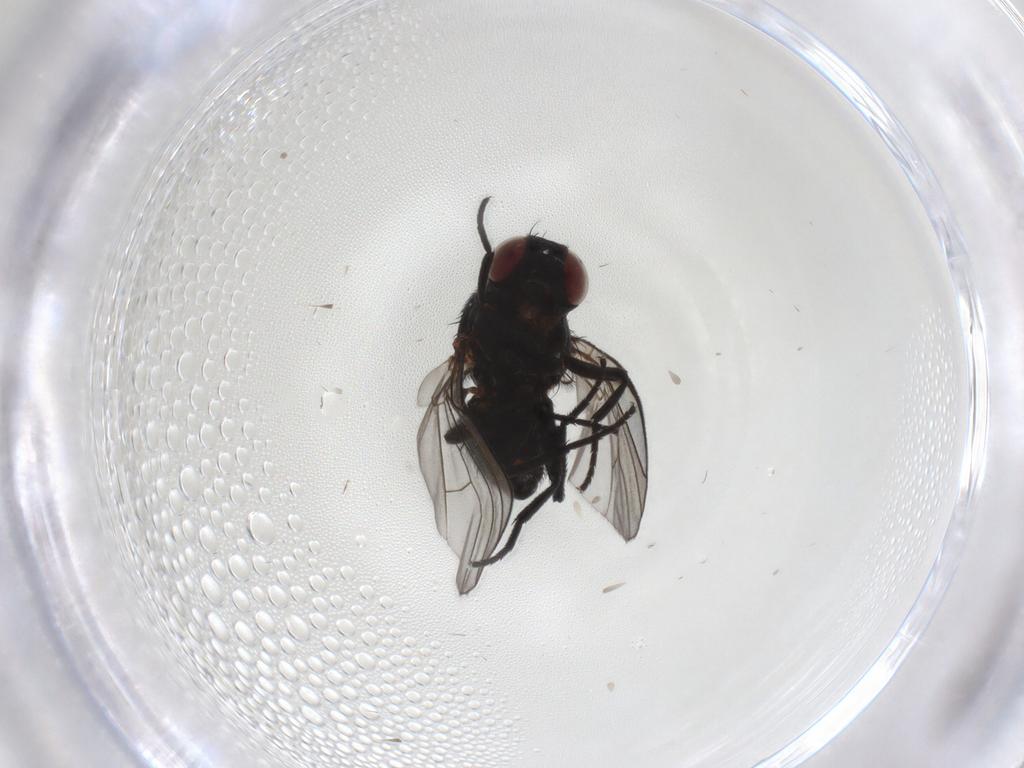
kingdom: Animalia
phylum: Arthropoda
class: Insecta
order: Diptera
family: Agromyzidae
